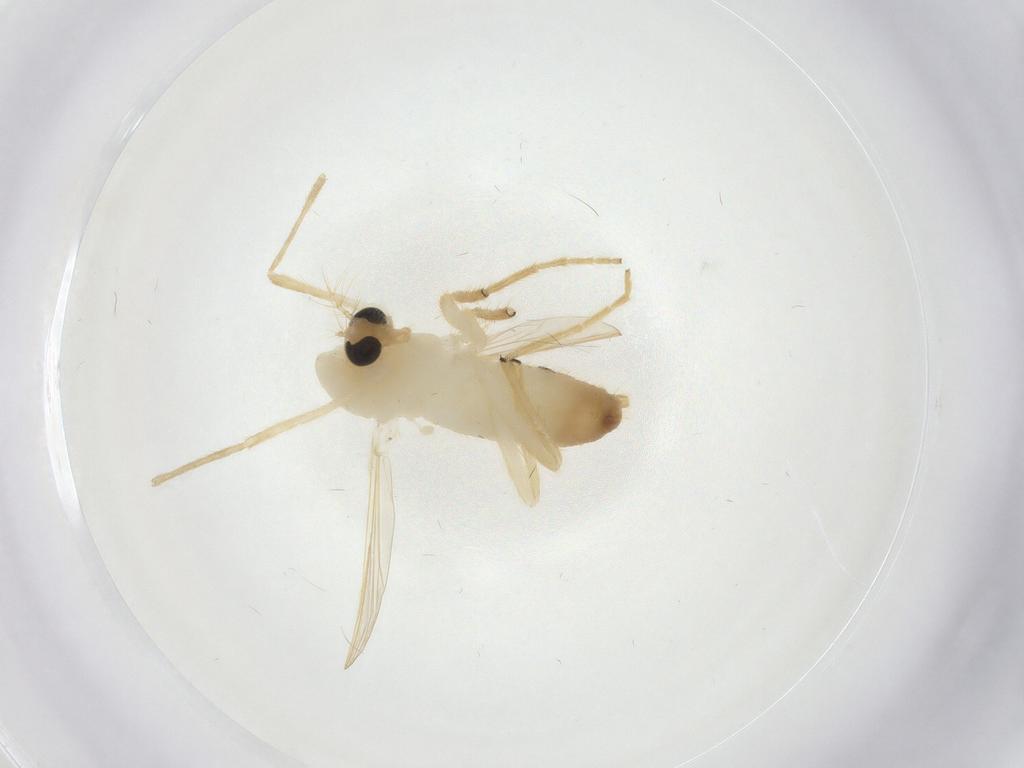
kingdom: Animalia
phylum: Arthropoda
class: Insecta
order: Diptera
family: Chironomidae
